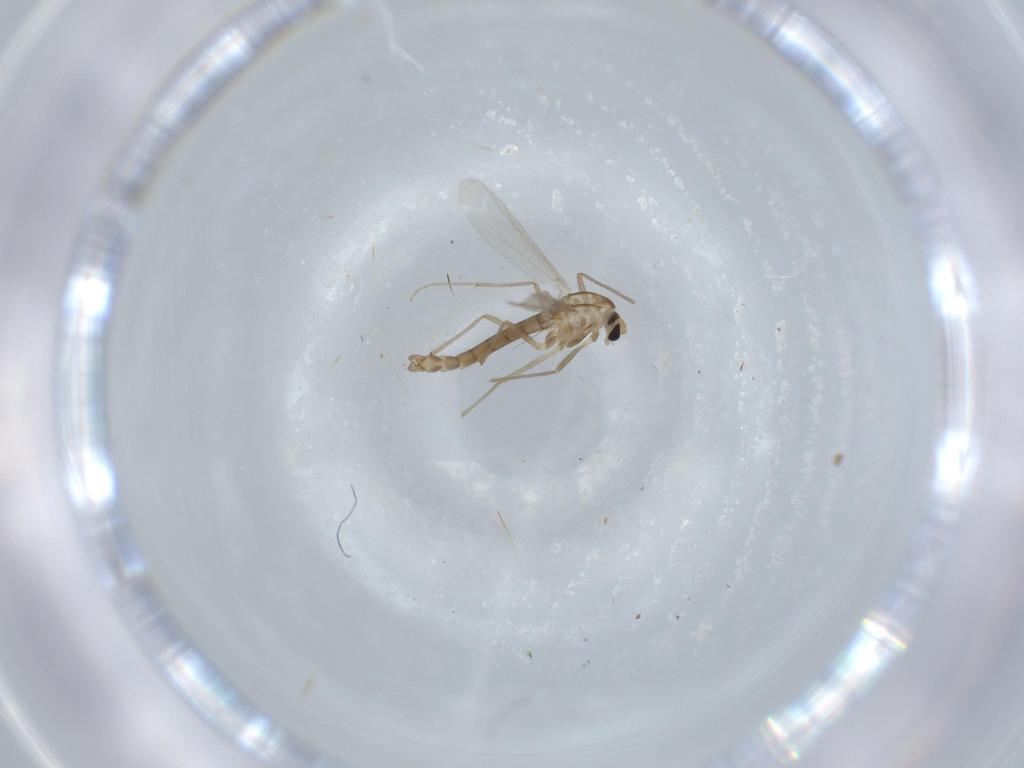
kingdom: Animalia
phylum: Arthropoda
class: Insecta
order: Diptera
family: Chironomidae
